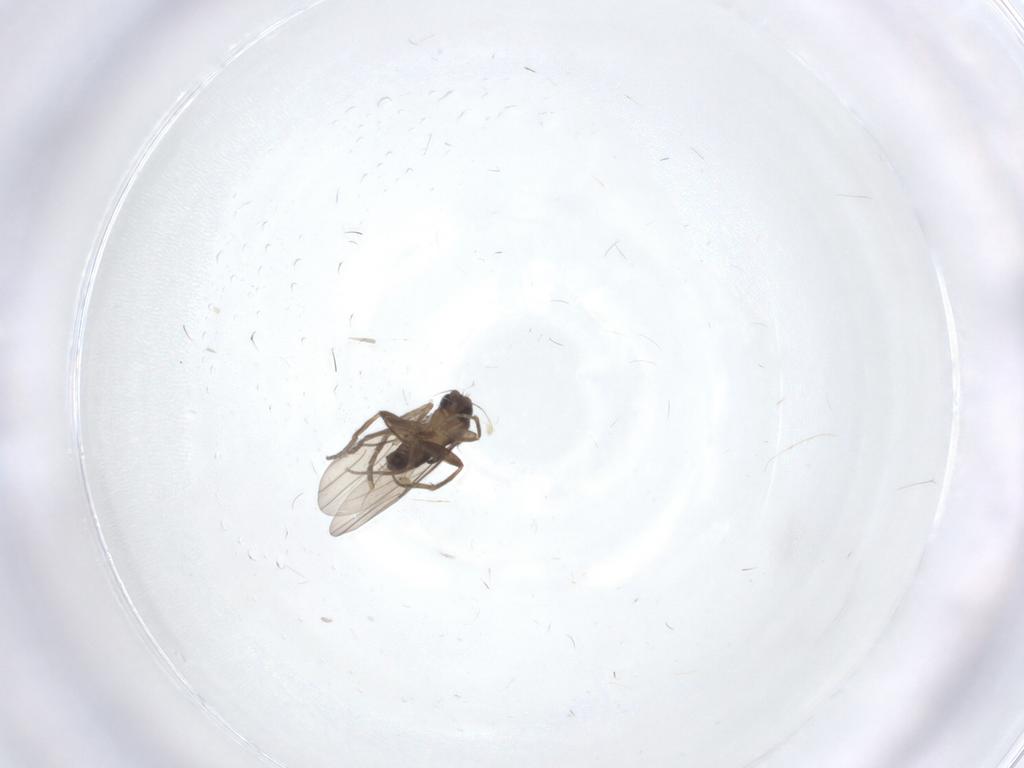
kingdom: Animalia
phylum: Arthropoda
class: Insecta
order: Diptera
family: Phoridae
